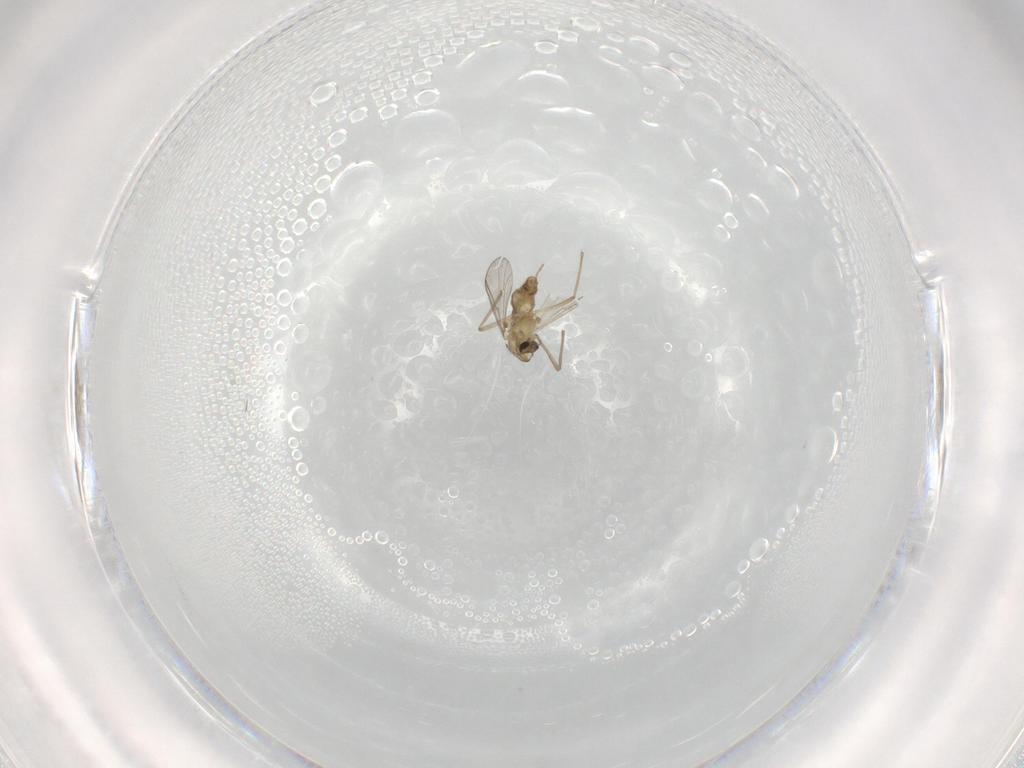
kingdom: Animalia
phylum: Arthropoda
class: Insecta
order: Diptera
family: Sciaridae
